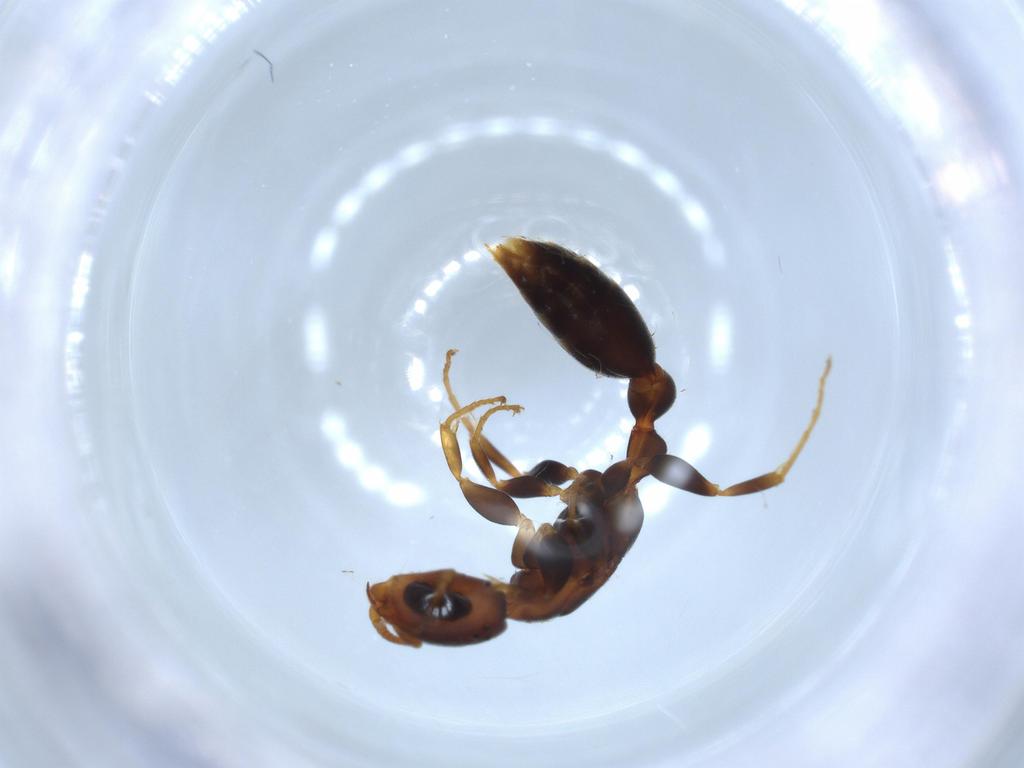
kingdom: Animalia
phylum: Arthropoda
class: Insecta
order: Hymenoptera
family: Formicidae
